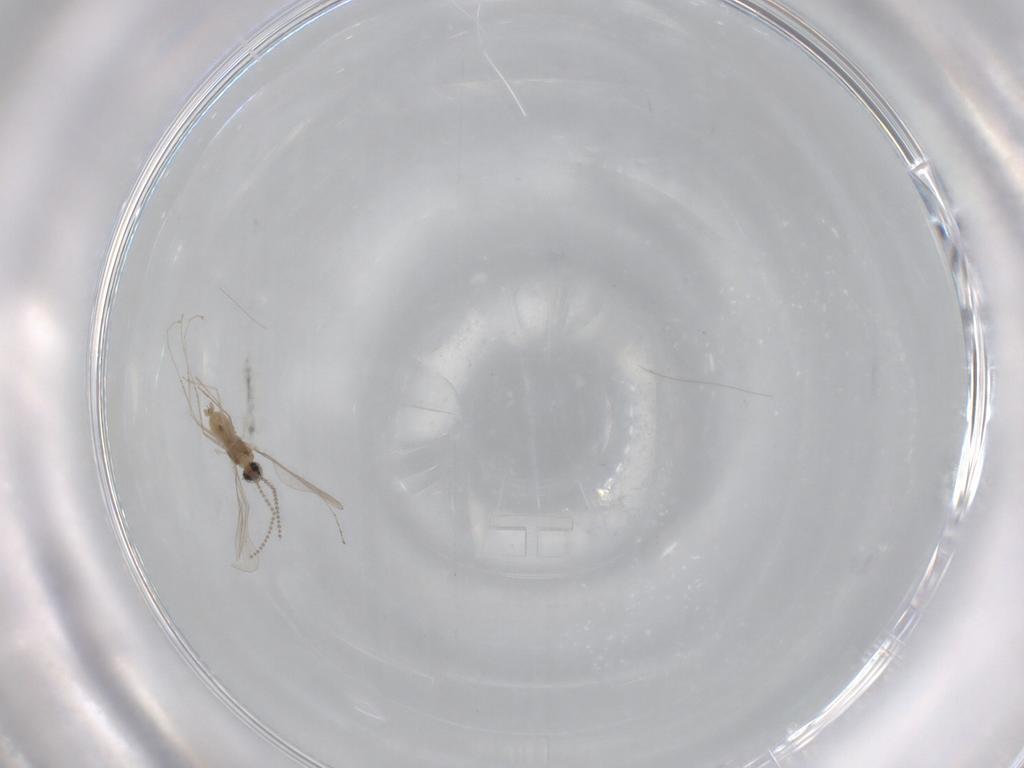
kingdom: Animalia
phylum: Arthropoda
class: Insecta
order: Diptera
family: Cecidomyiidae
